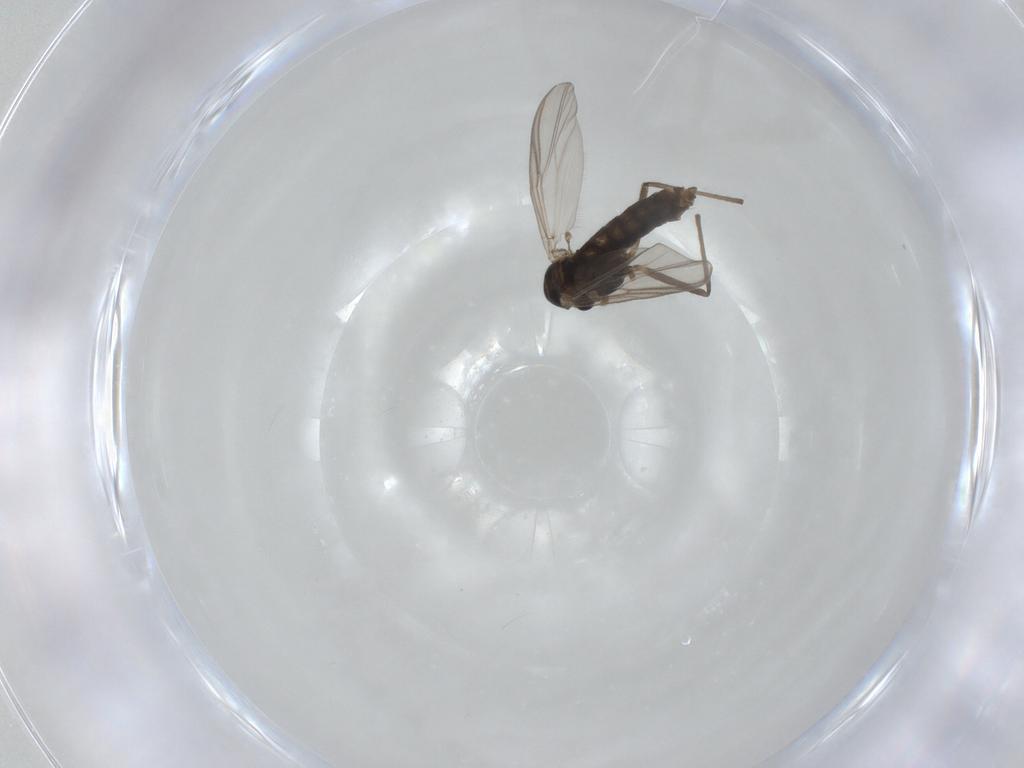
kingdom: Animalia
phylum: Arthropoda
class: Insecta
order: Diptera
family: Chironomidae
